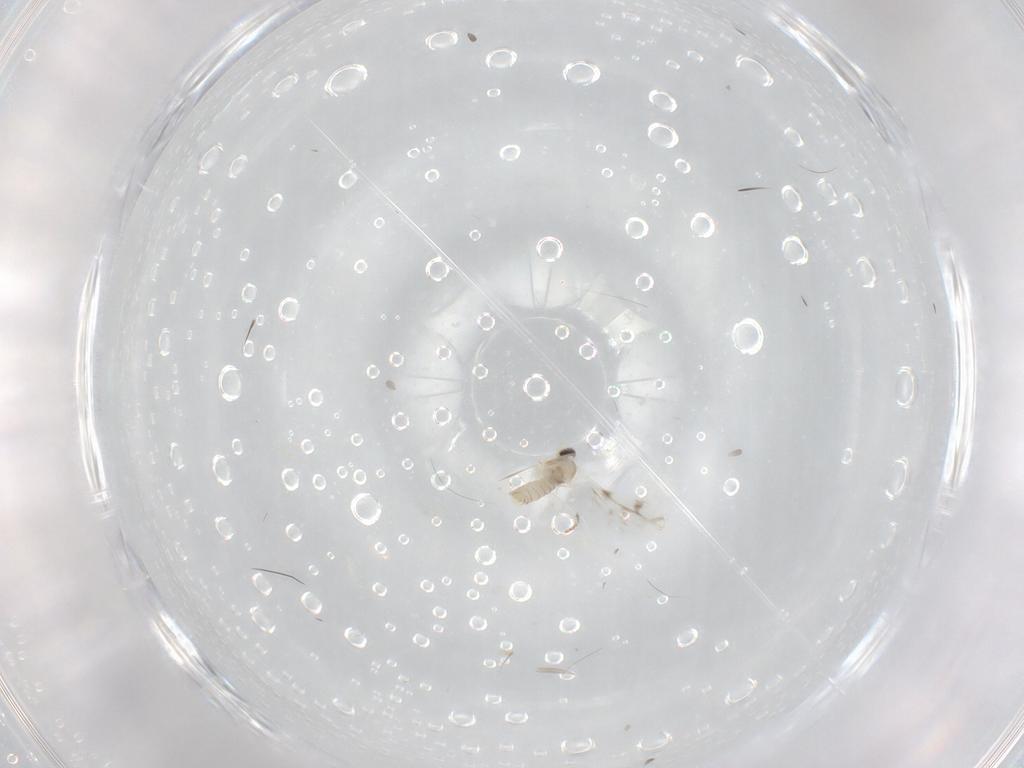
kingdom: Animalia
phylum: Arthropoda
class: Insecta
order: Diptera
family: Cecidomyiidae
